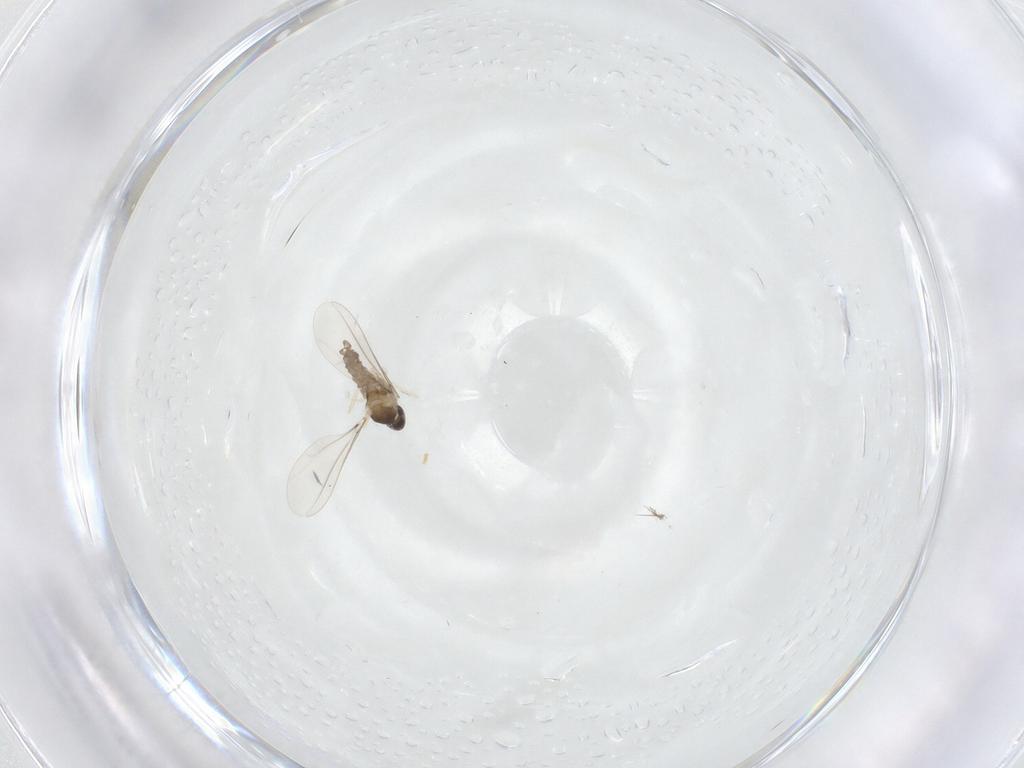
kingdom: Animalia
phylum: Arthropoda
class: Insecta
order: Diptera
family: Cecidomyiidae
